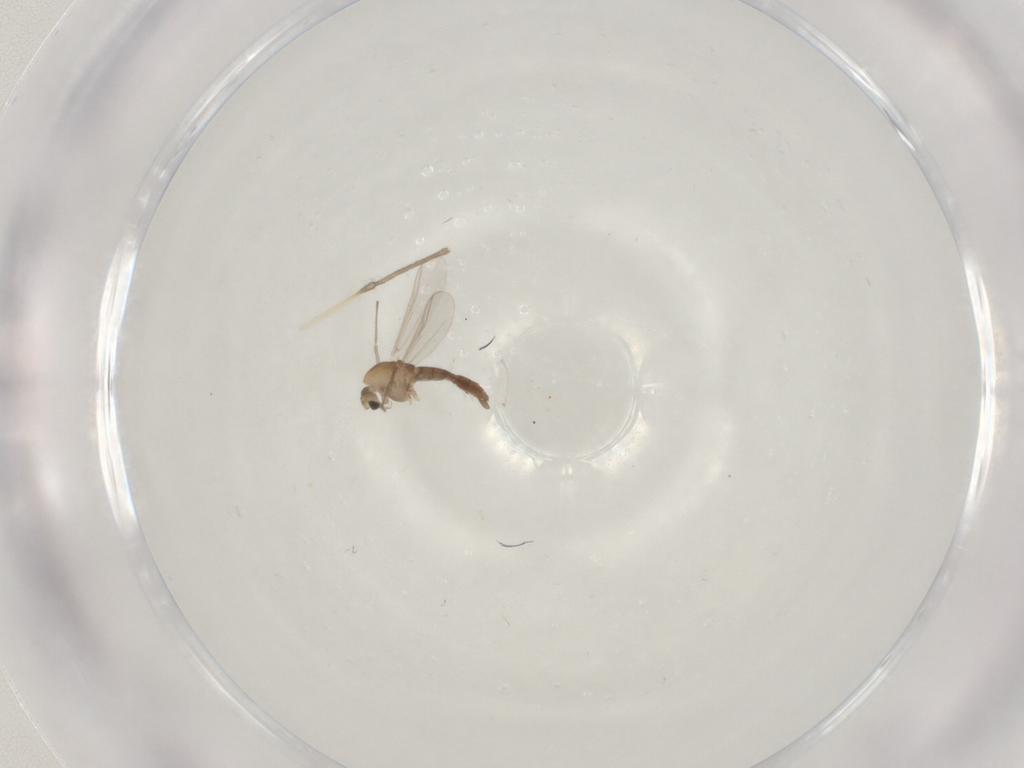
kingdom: Animalia
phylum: Arthropoda
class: Insecta
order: Diptera
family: Chironomidae
